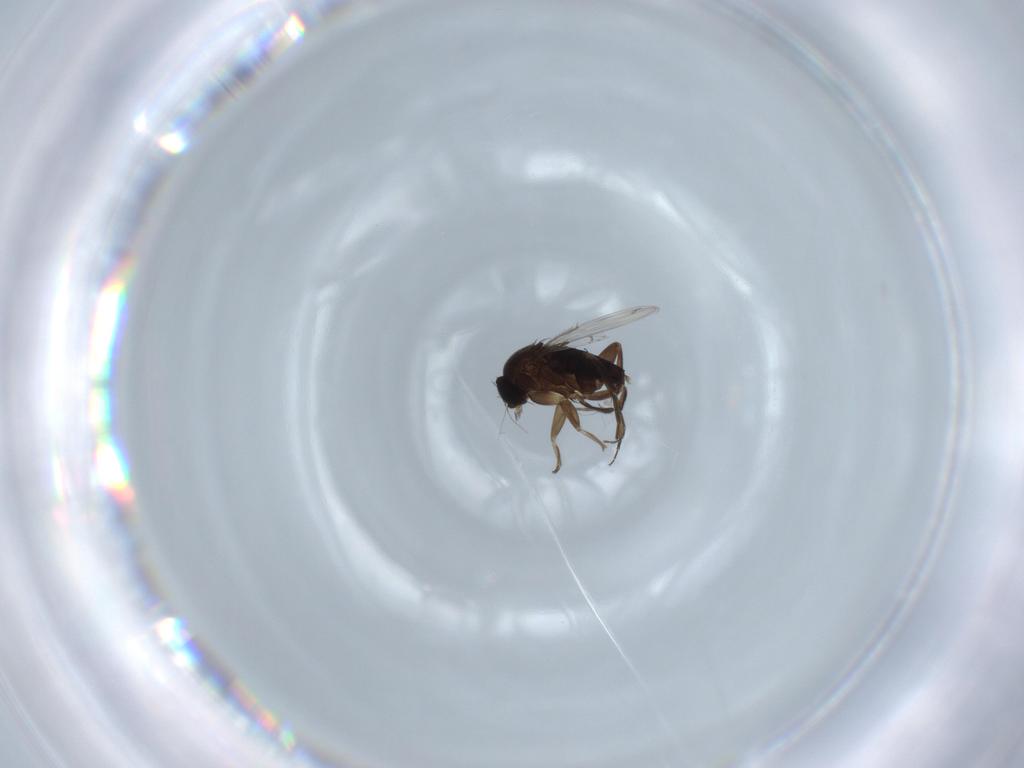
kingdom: Animalia
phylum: Arthropoda
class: Insecta
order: Diptera
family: Phoridae
